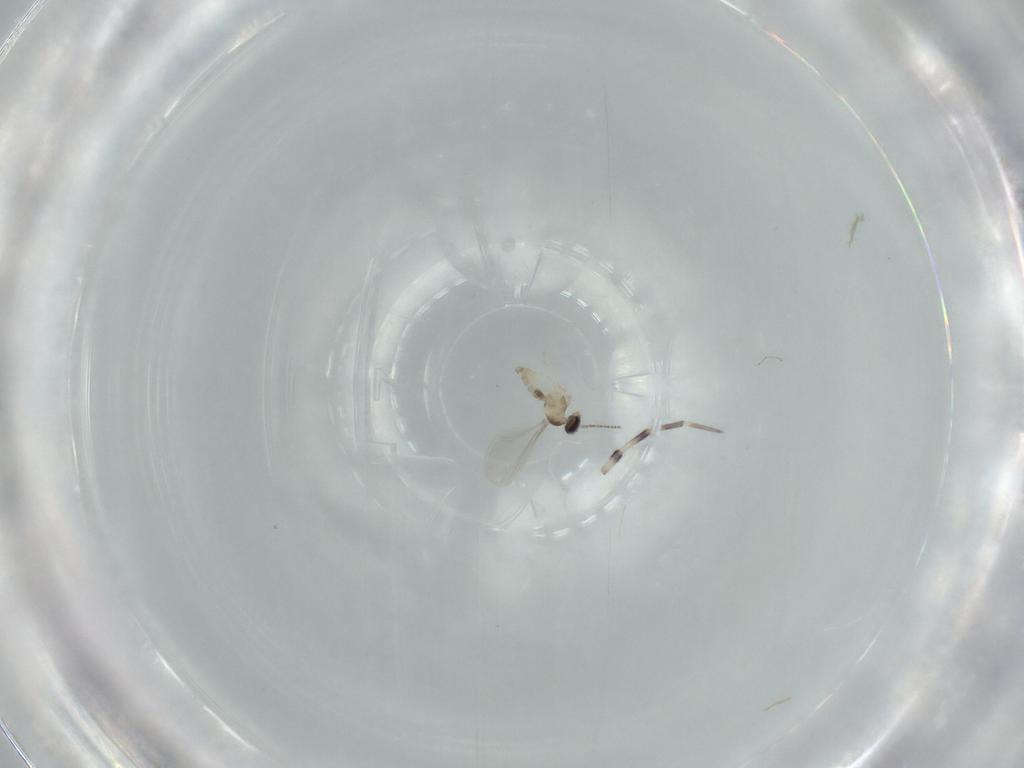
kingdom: Animalia
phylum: Arthropoda
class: Insecta
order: Diptera
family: Cecidomyiidae
